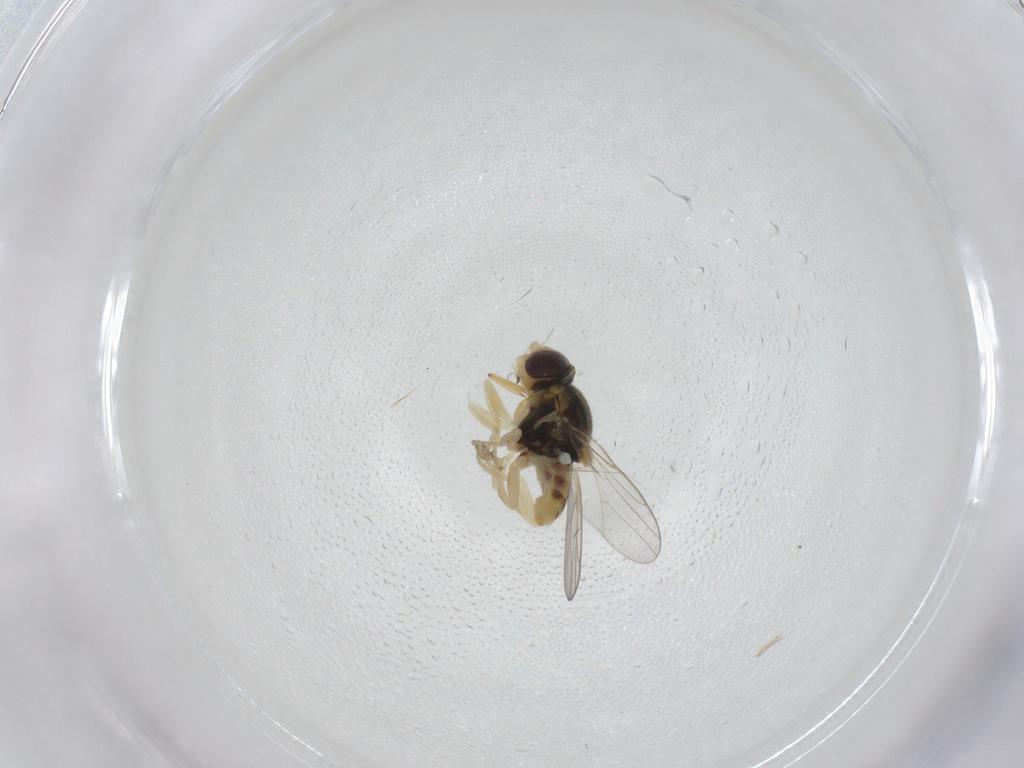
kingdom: Animalia
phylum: Arthropoda
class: Insecta
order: Diptera
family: Chloropidae
